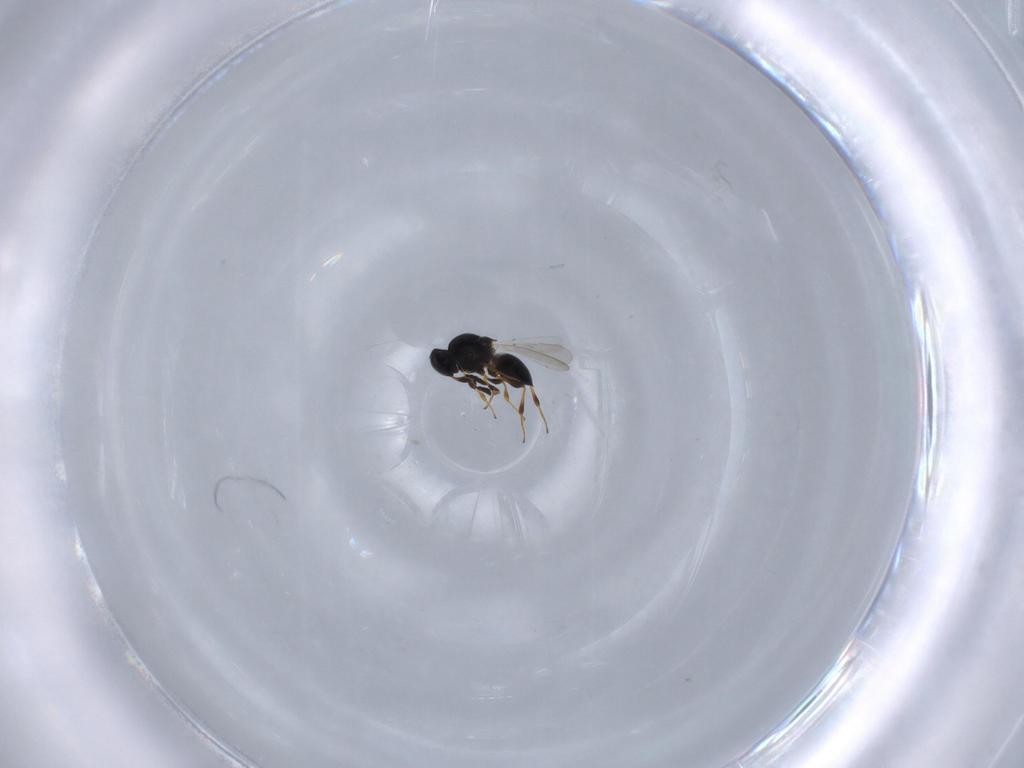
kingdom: Animalia
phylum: Arthropoda
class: Insecta
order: Hymenoptera
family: Platygastridae
